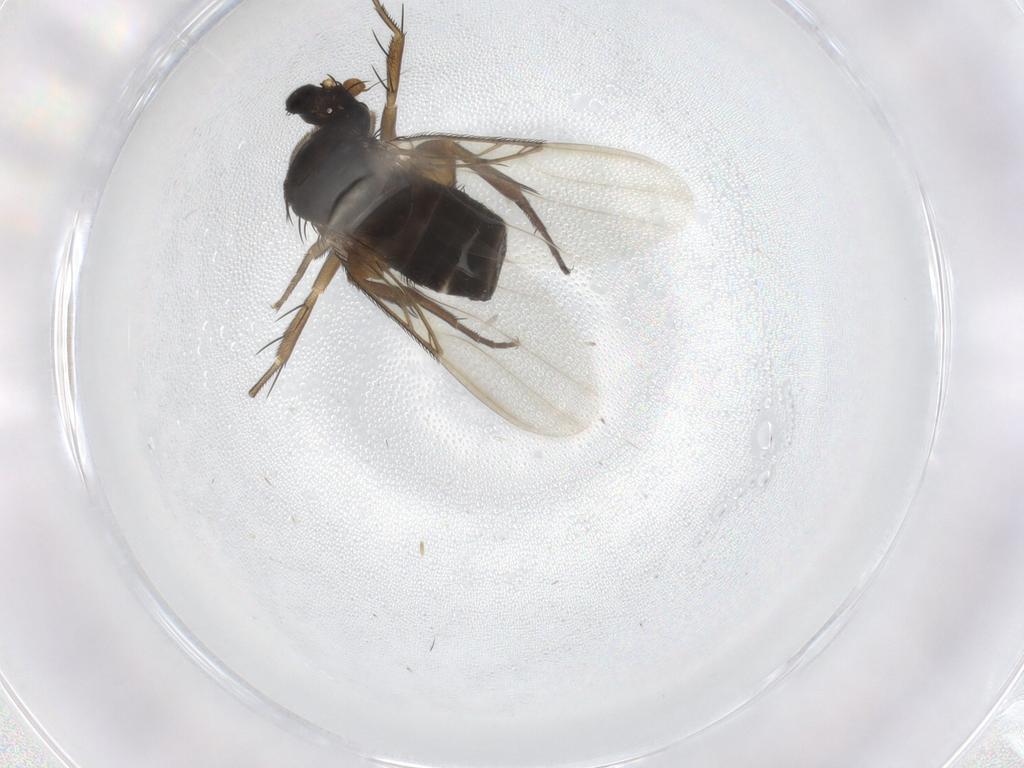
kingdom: Animalia
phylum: Arthropoda
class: Insecta
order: Diptera
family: Phoridae
